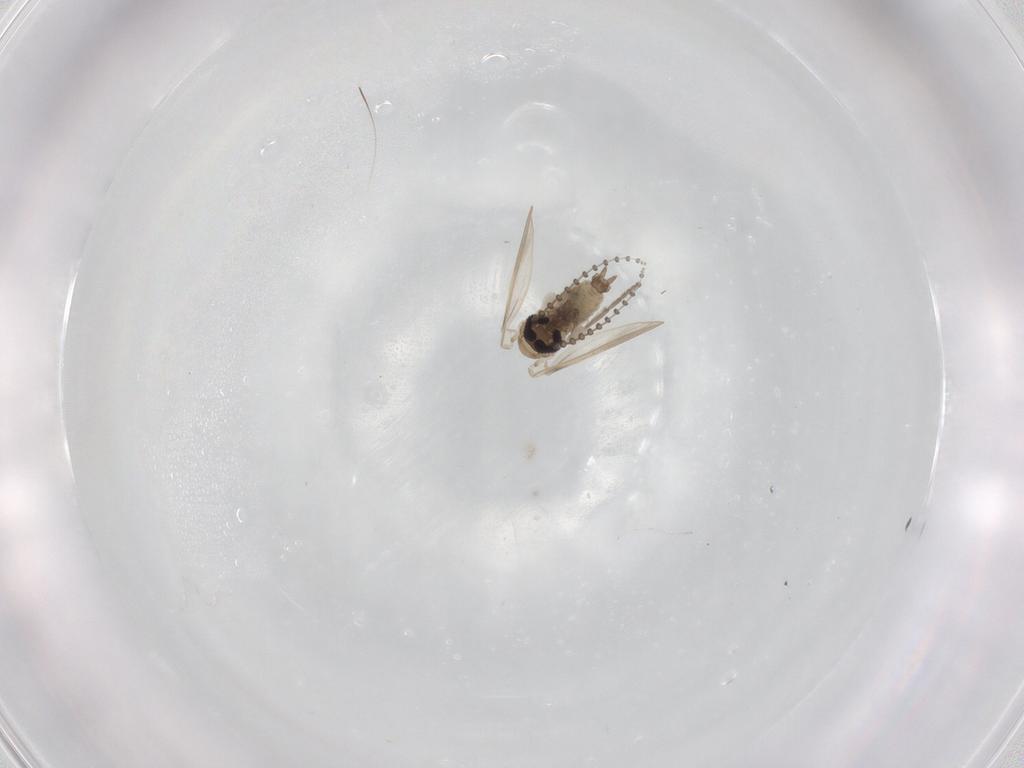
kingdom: Animalia
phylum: Arthropoda
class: Insecta
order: Diptera
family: Psychodidae
